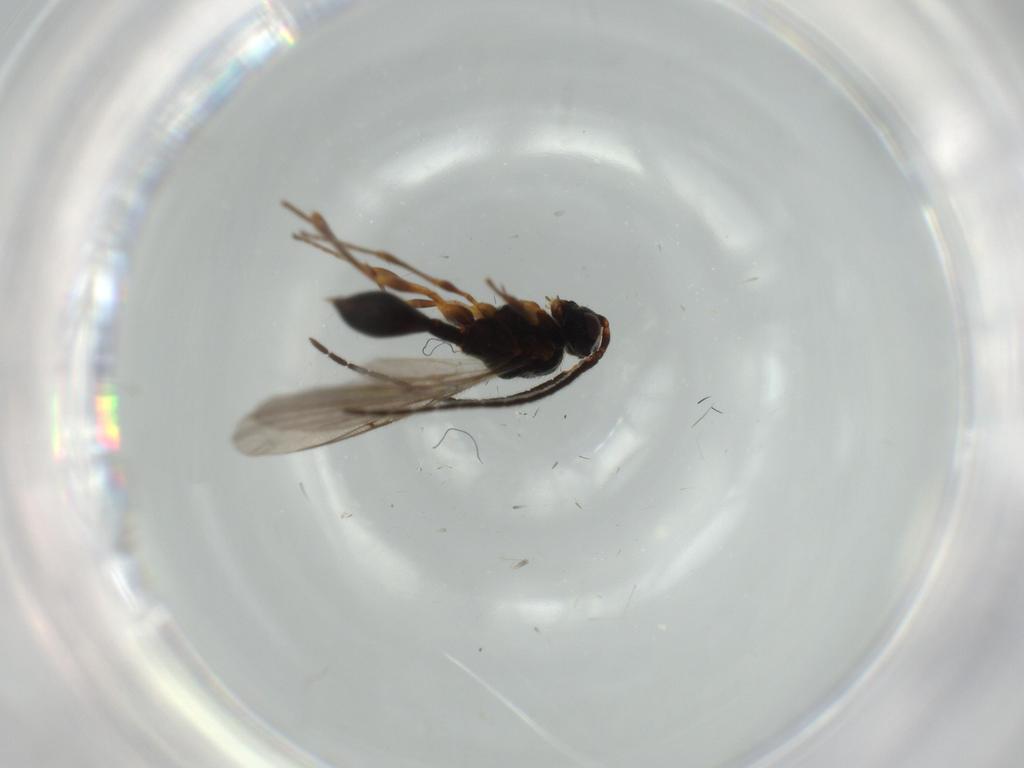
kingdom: Animalia
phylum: Arthropoda
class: Insecta
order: Hymenoptera
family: Diapriidae
